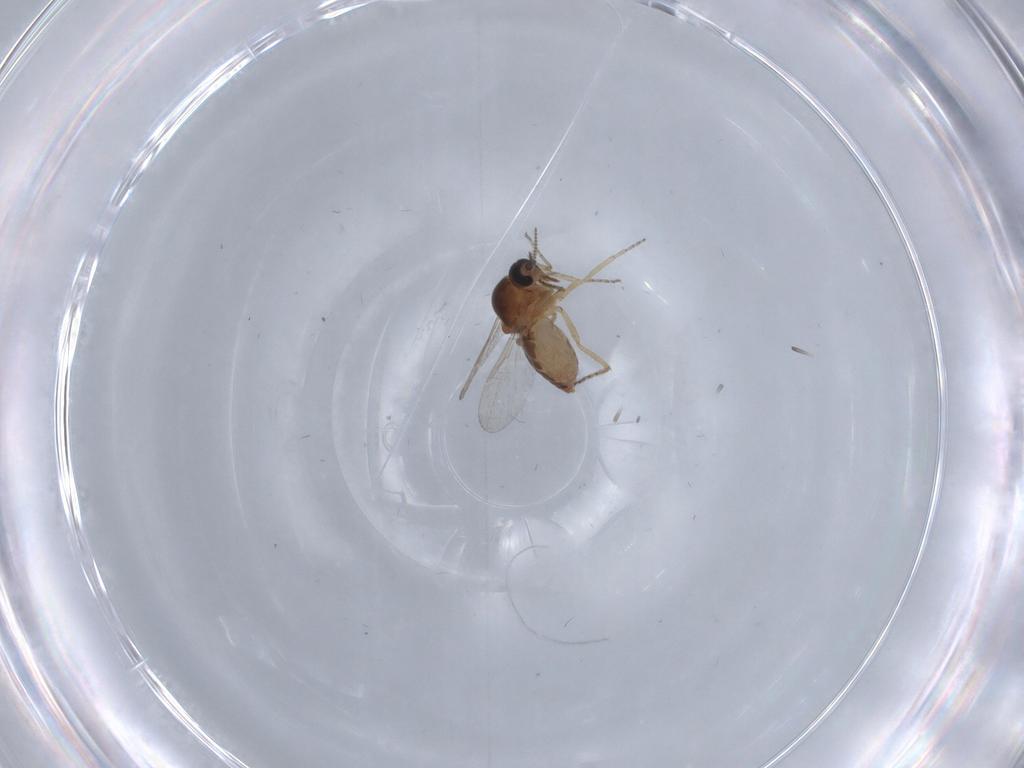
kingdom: Animalia
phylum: Arthropoda
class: Insecta
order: Diptera
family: Ceratopogonidae
